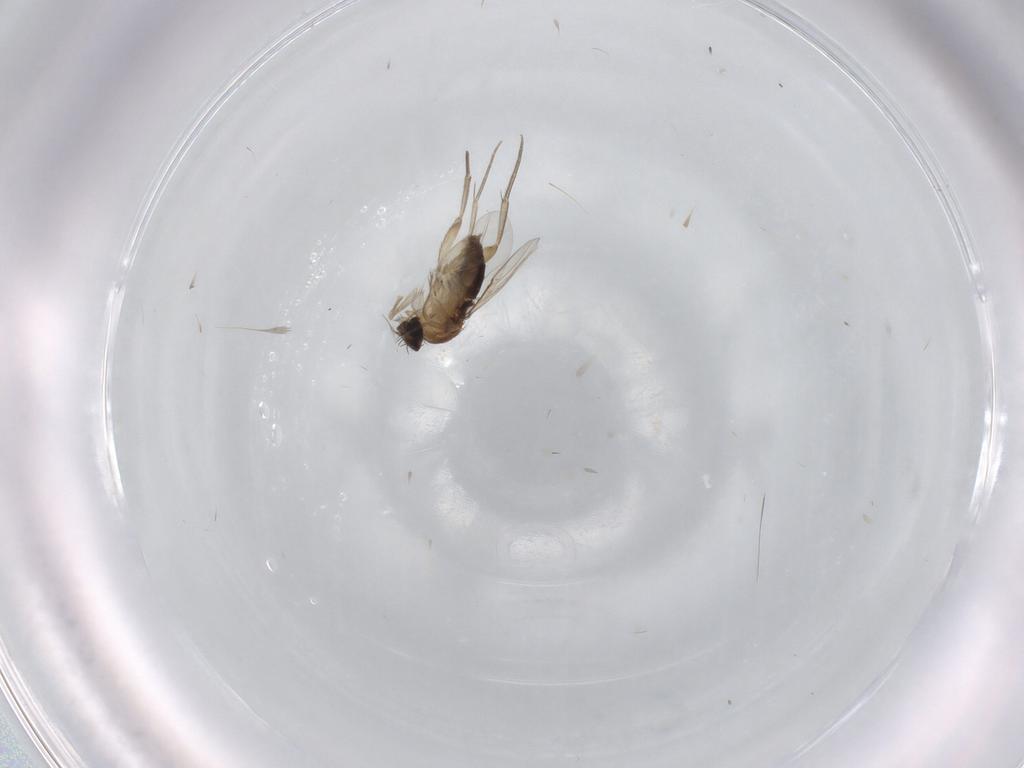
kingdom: Animalia
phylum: Arthropoda
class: Insecta
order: Diptera
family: Phoridae
